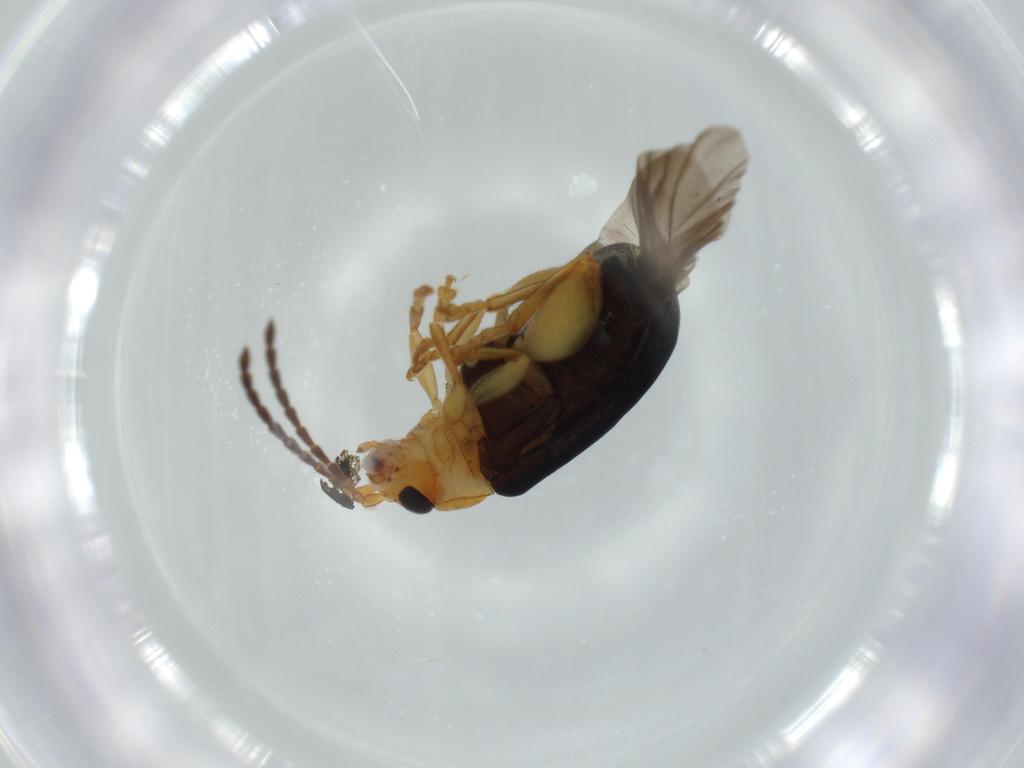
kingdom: Animalia
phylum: Arthropoda
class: Insecta
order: Coleoptera
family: Chrysomelidae
